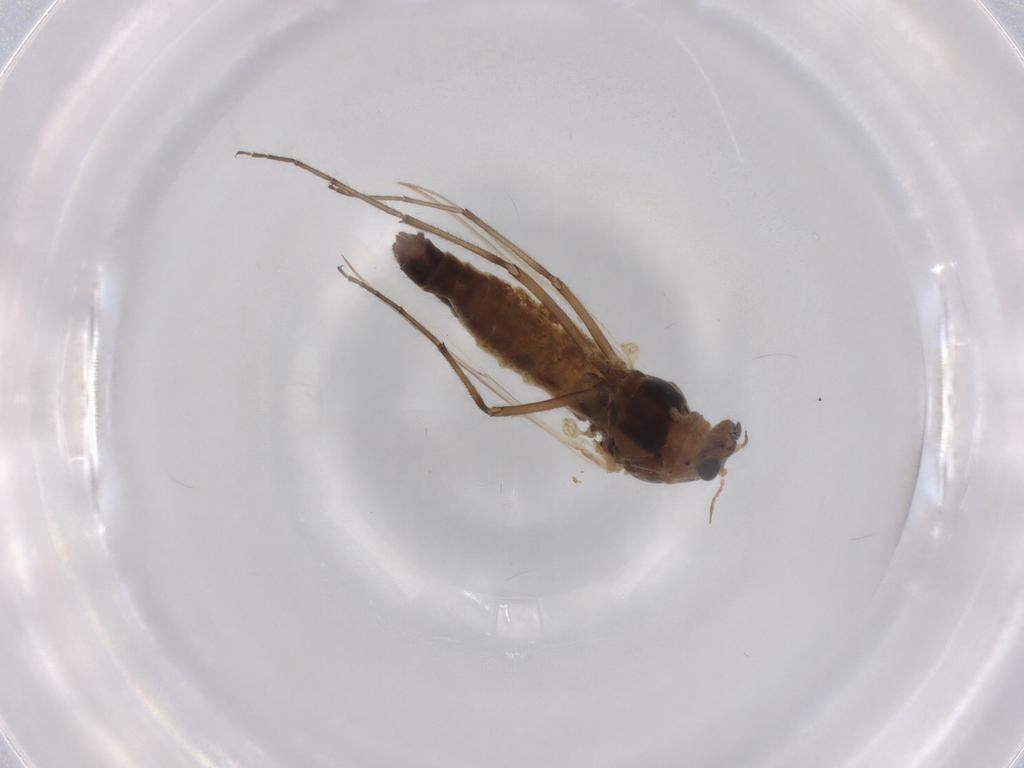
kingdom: Animalia
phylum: Arthropoda
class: Insecta
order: Diptera
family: Chironomidae
